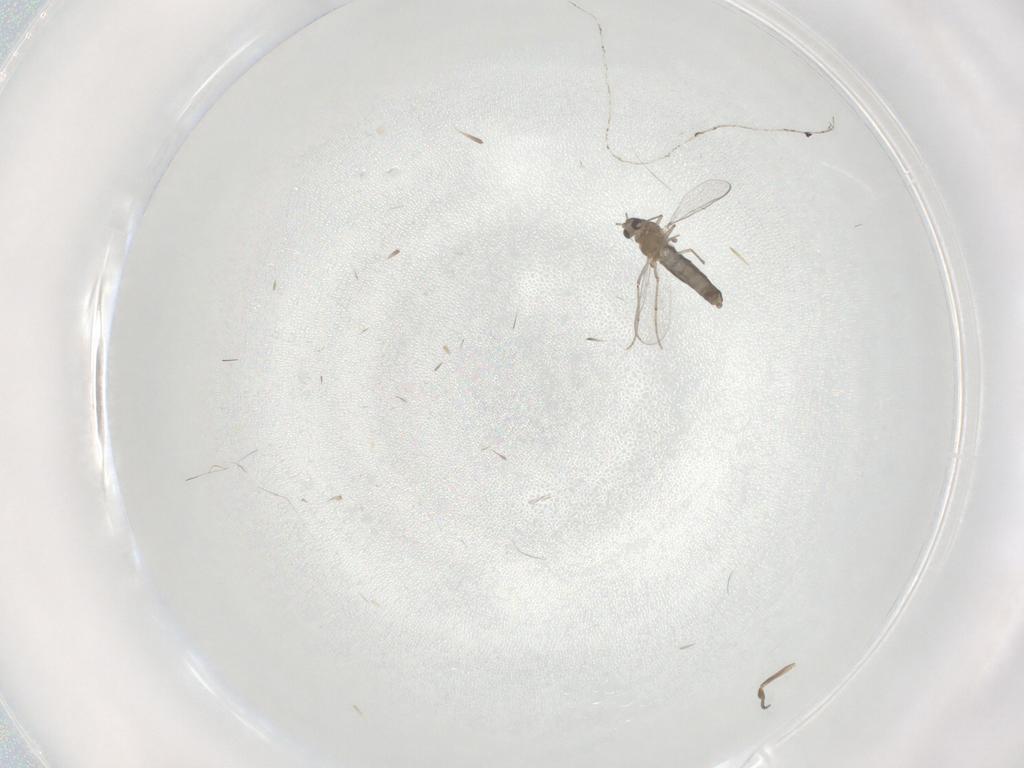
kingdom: Animalia
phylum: Arthropoda
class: Insecta
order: Diptera
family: Chironomidae
